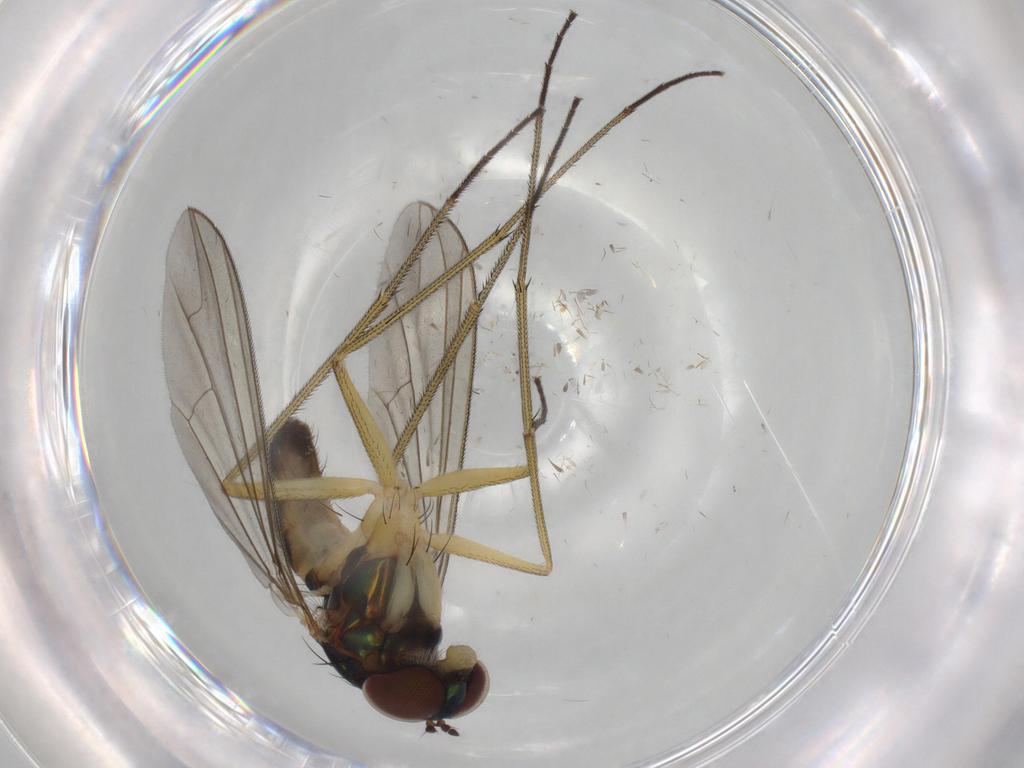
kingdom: Animalia
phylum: Arthropoda
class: Insecta
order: Diptera
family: Dolichopodidae
